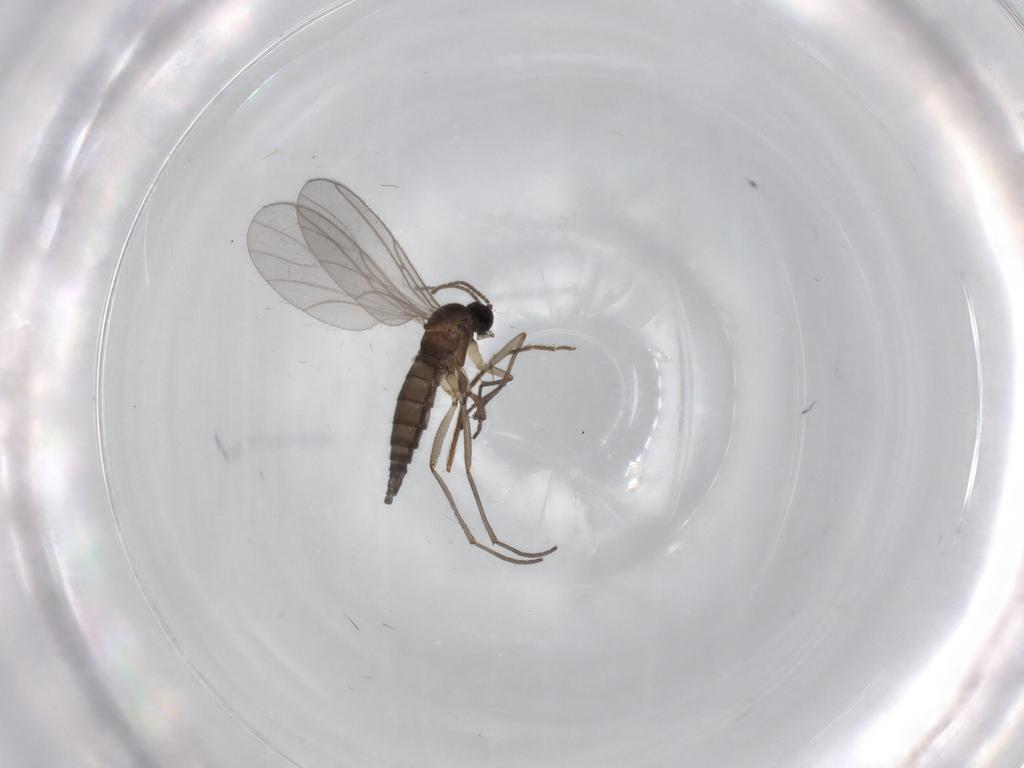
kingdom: Animalia
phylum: Arthropoda
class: Insecta
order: Diptera
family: Sciaridae
